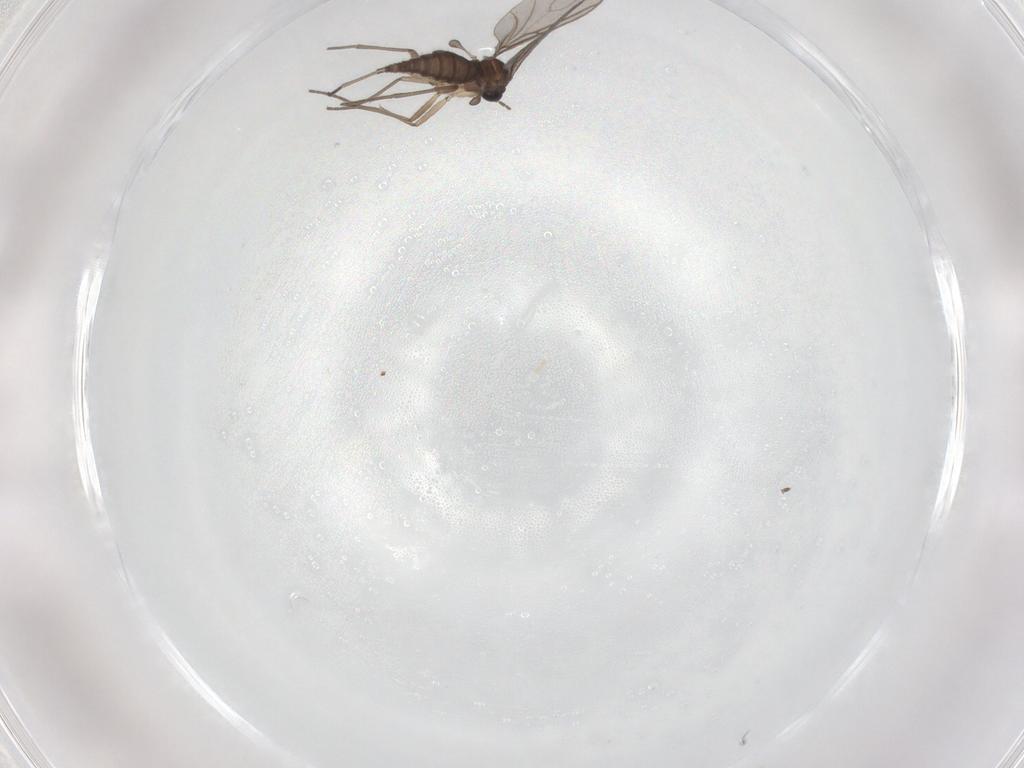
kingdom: Animalia
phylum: Arthropoda
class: Insecta
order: Diptera
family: Sciaridae
